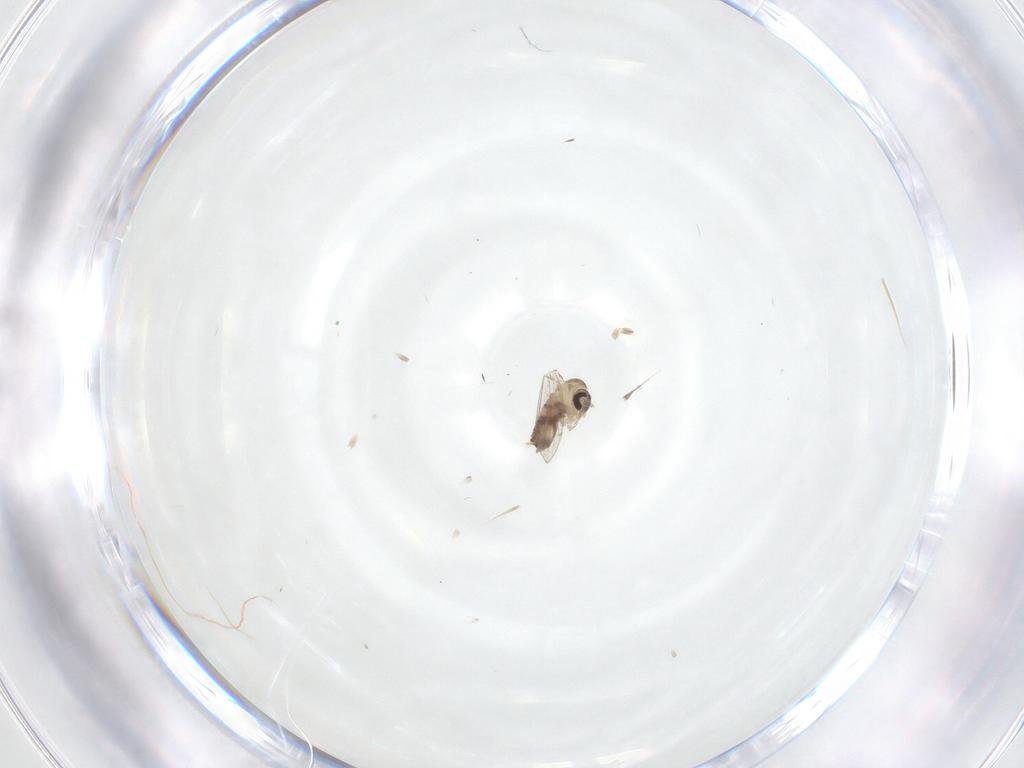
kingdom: Animalia
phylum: Arthropoda
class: Insecta
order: Diptera
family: Psychodidae
